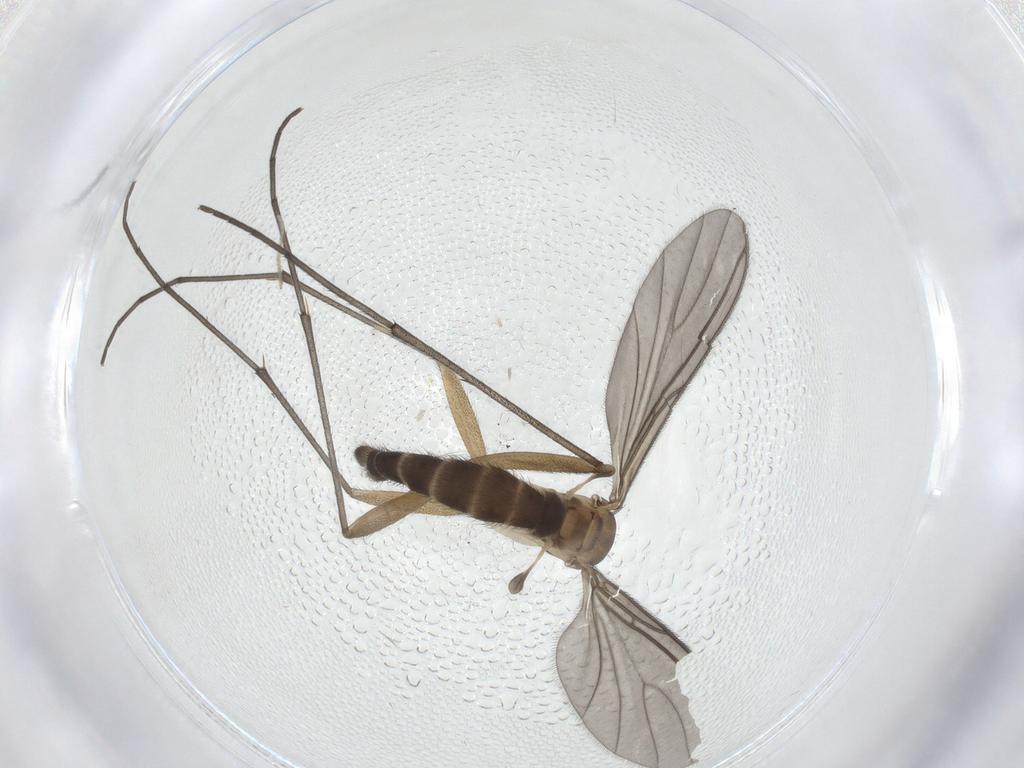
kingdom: Animalia
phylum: Arthropoda
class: Insecta
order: Diptera
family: Sciaridae
